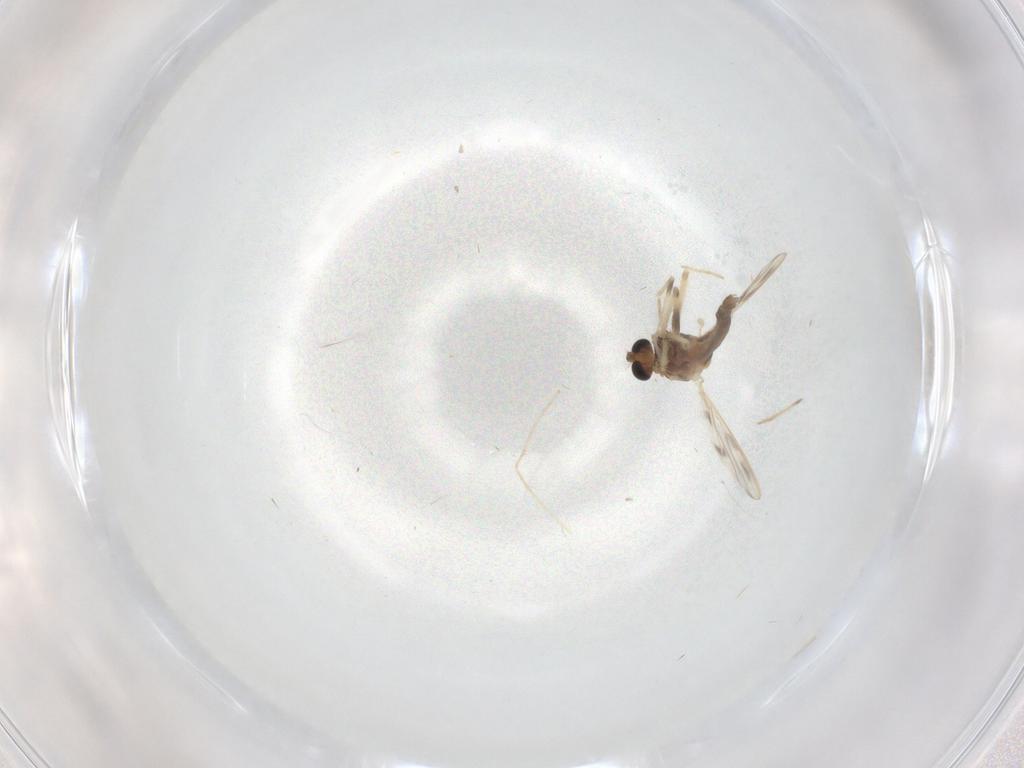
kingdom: Animalia
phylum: Arthropoda
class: Insecta
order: Diptera
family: Chironomidae
